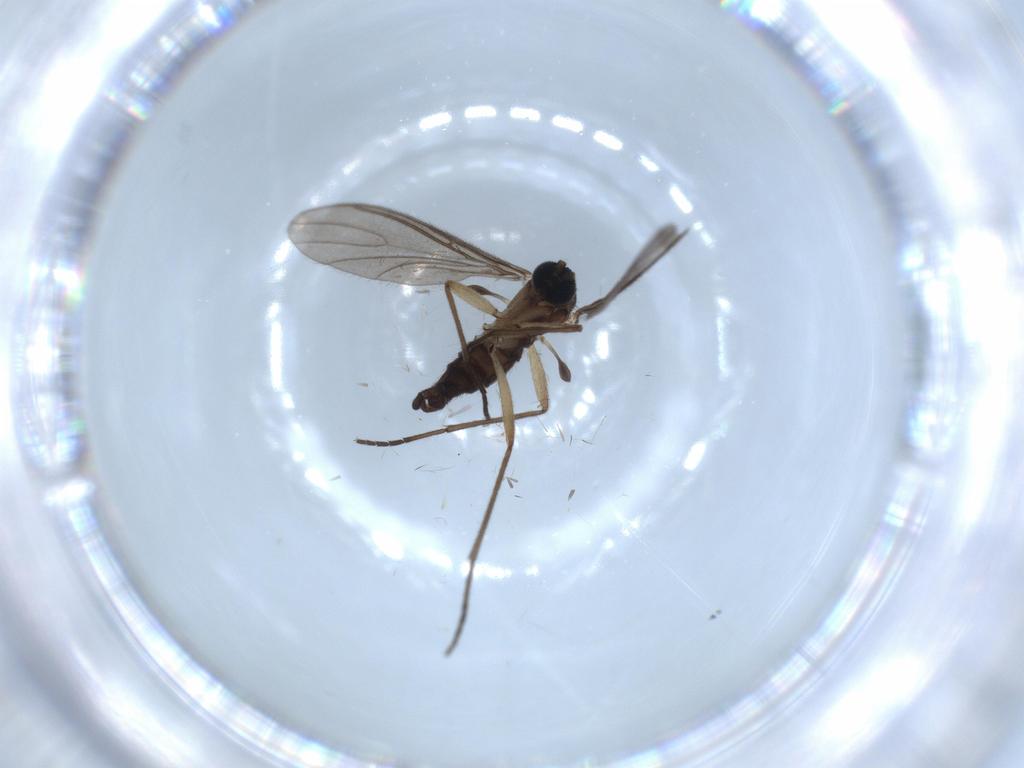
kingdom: Animalia
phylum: Arthropoda
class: Insecta
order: Diptera
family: Sciaridae
